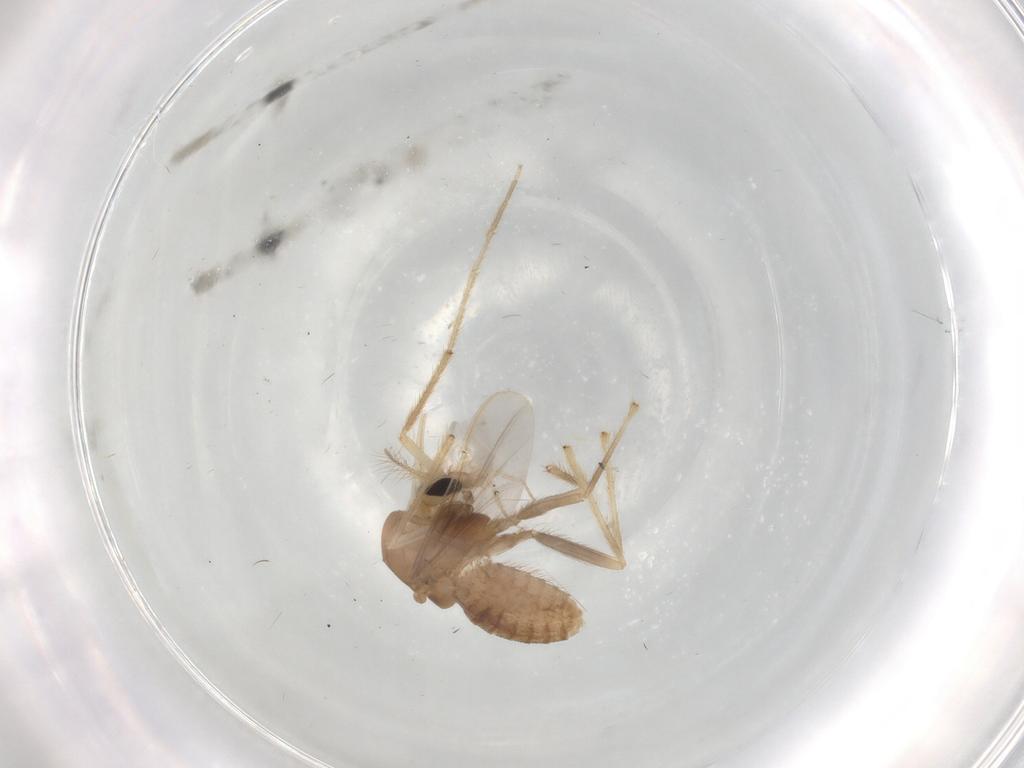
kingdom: Animalia
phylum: Arthropoda
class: Insecta
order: Diptera
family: Chironomidae
